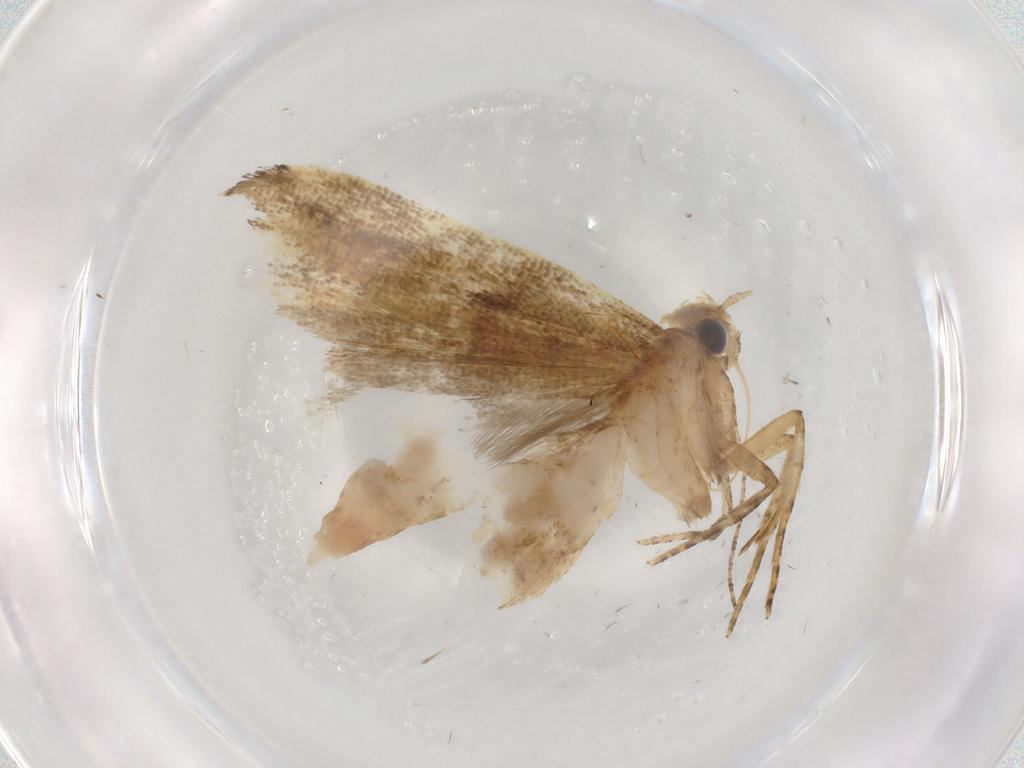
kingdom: Animalia
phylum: Arthropoda
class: Insecta
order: Lepidoptera
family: Gelechiidae
